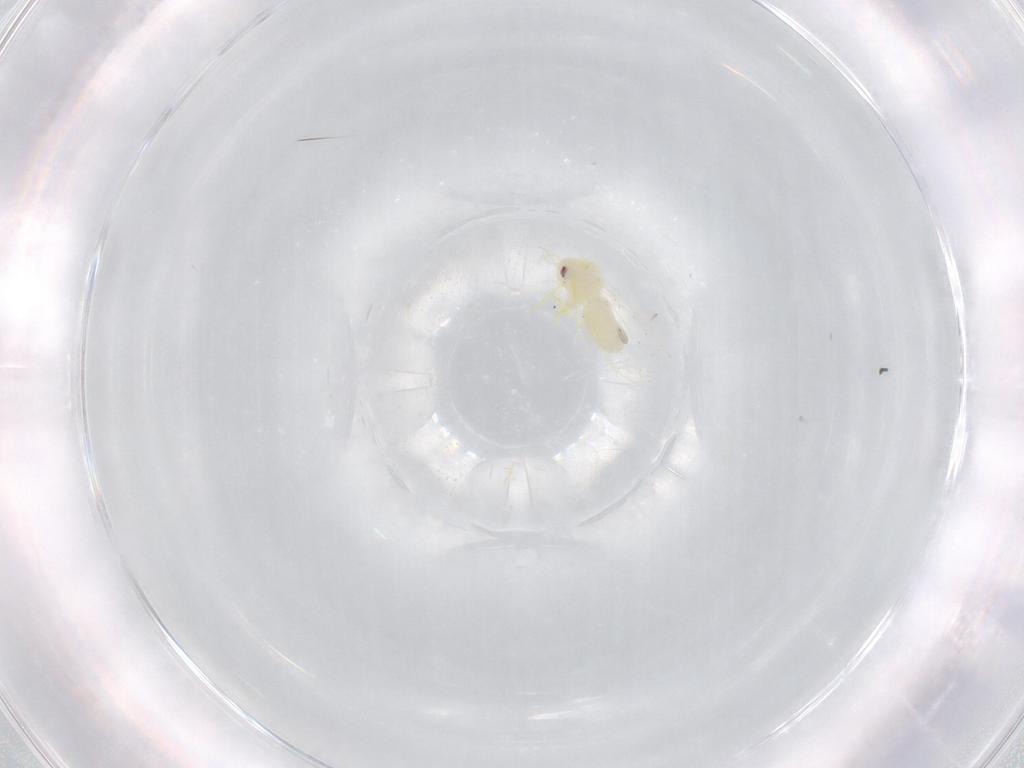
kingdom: Animalia
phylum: Arthropoda
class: Insecta
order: Hemiptera
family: Aleyrodidae
